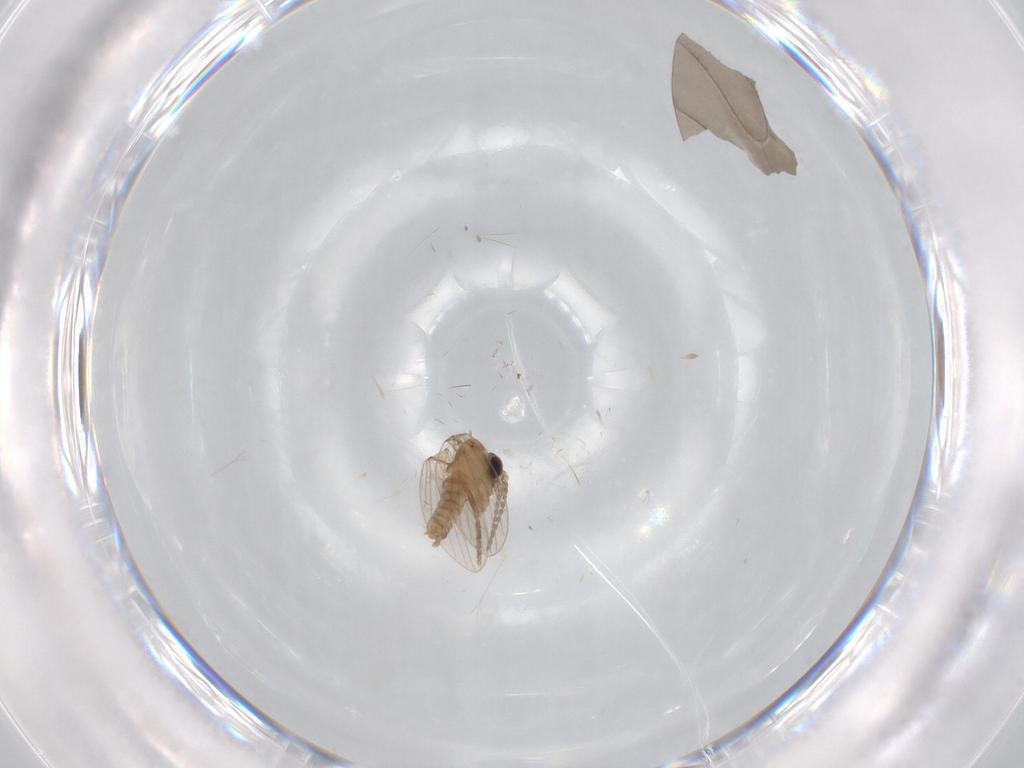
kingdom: Animalia
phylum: Arthropoda
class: Insecta
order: Diptera
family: Psychodidae
